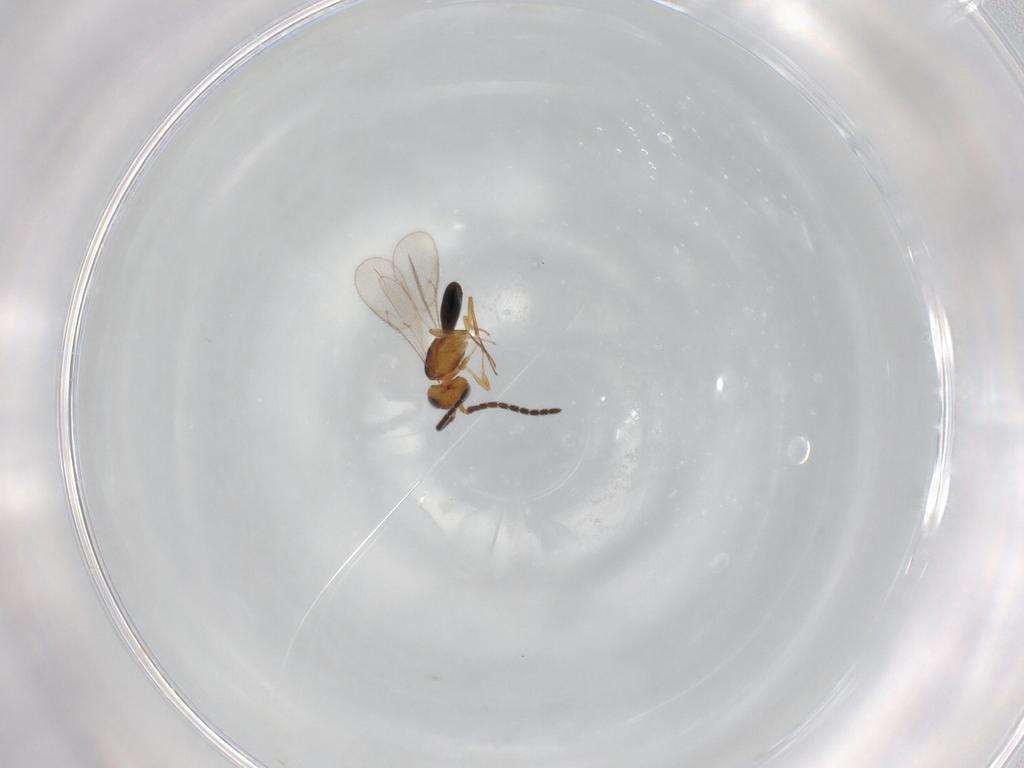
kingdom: Animalia
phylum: Arthropoda
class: Insecta
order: Hymenoptera
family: Scelionidae
